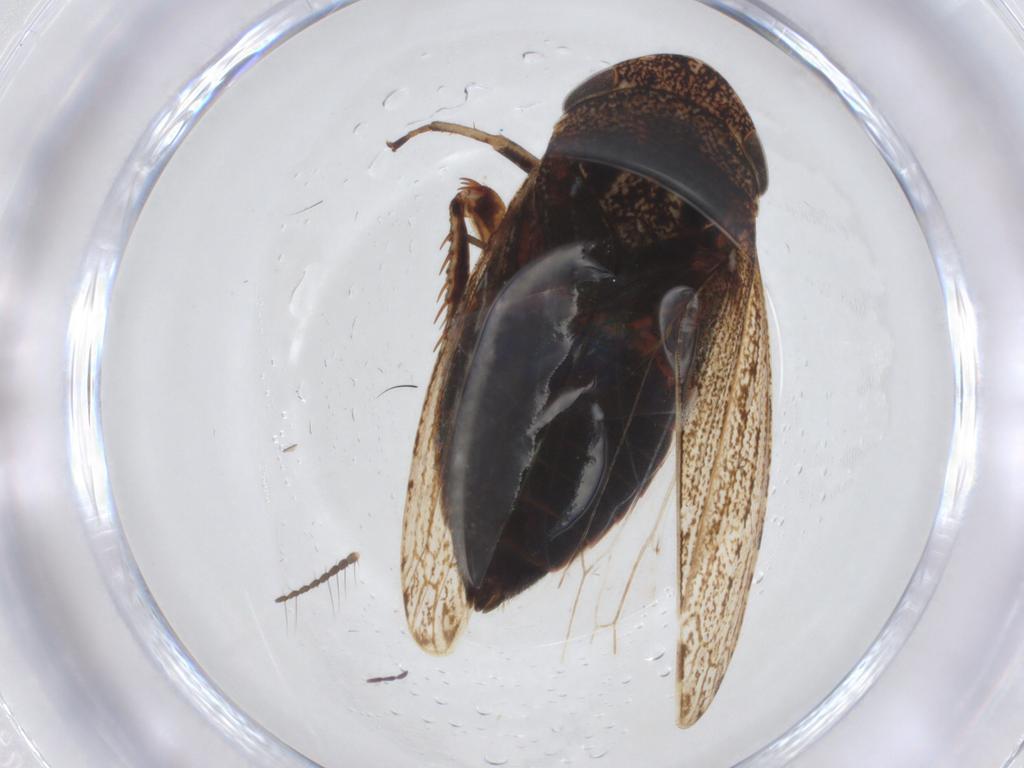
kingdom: Animalia
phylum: Arthropoda
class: Insecta
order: Hemiptera
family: Cicadellidae
